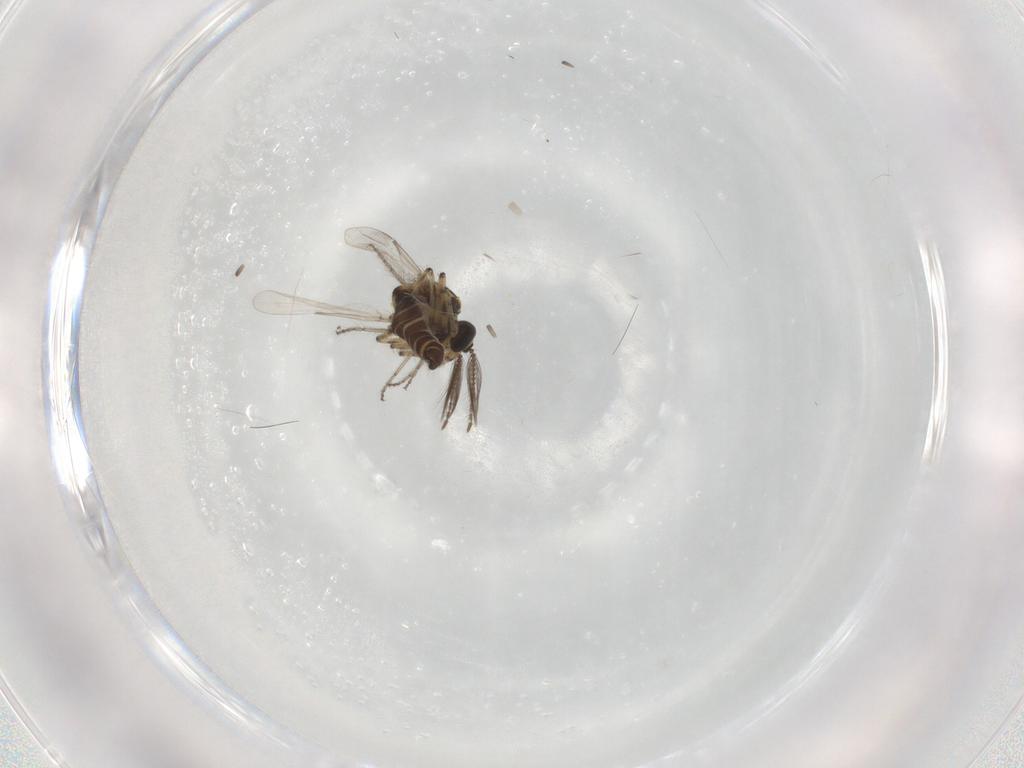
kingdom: Animalia
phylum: Arthropoda
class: Insecta
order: Diptera
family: Ceratopogonidae
